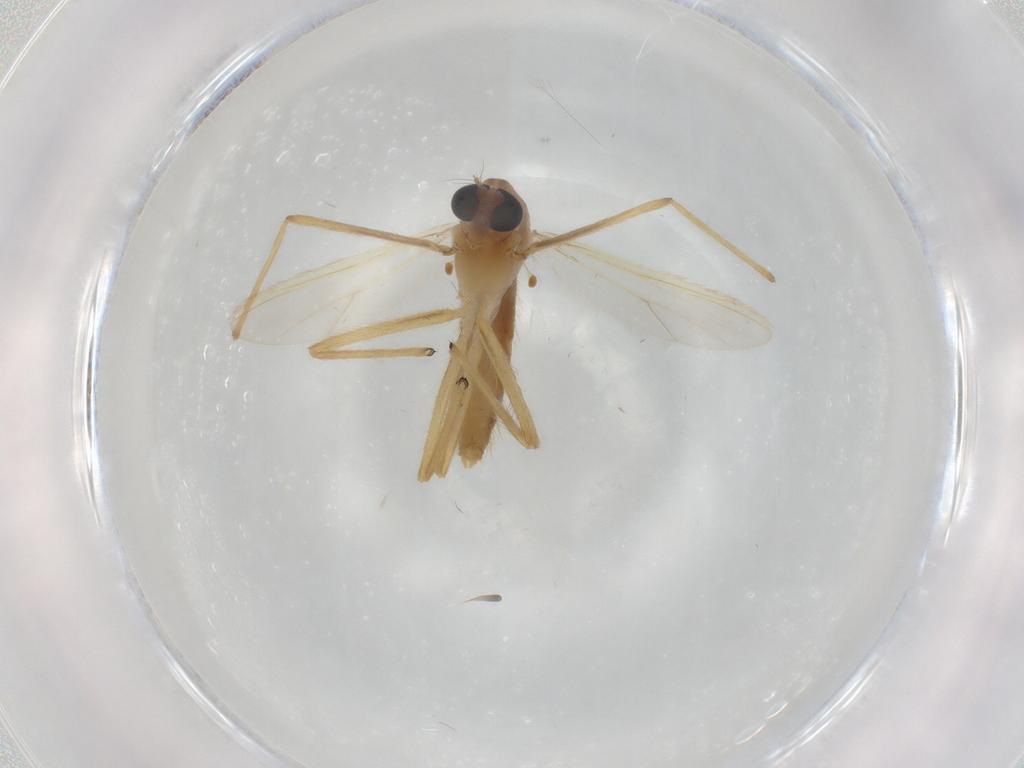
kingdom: Animalia
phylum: Arthropoda
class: Insecta
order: Diptera
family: Chironomidae
